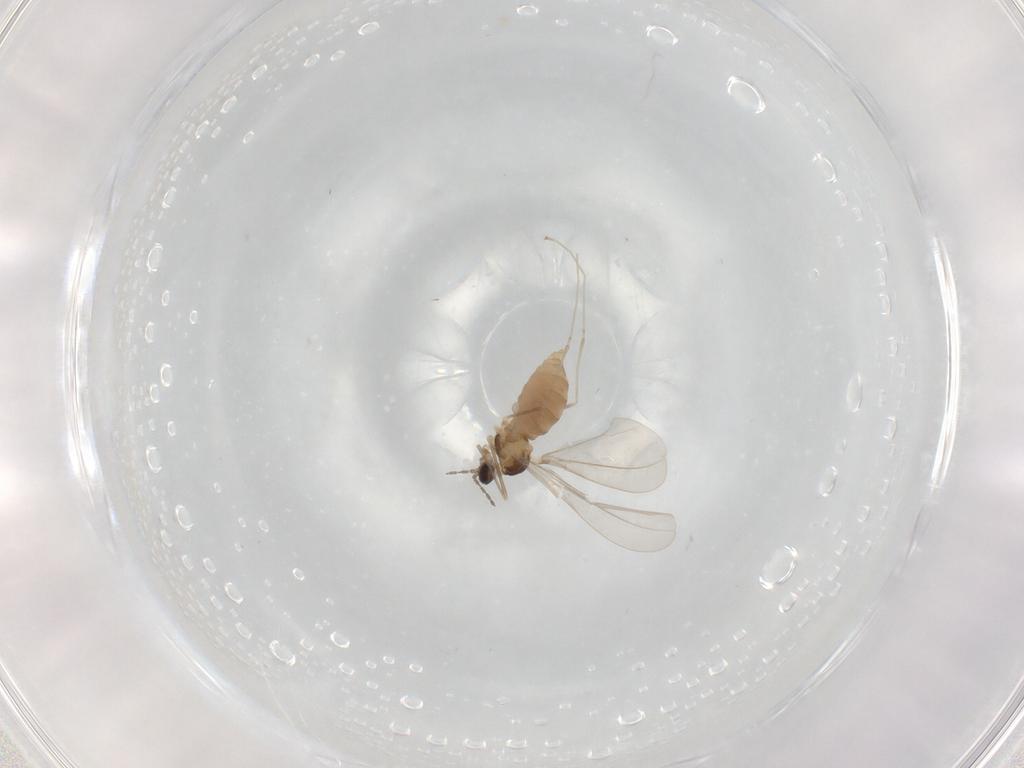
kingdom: Animalia
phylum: Arthropoda
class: Insecta
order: Diptera
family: Cecidomyiidae
